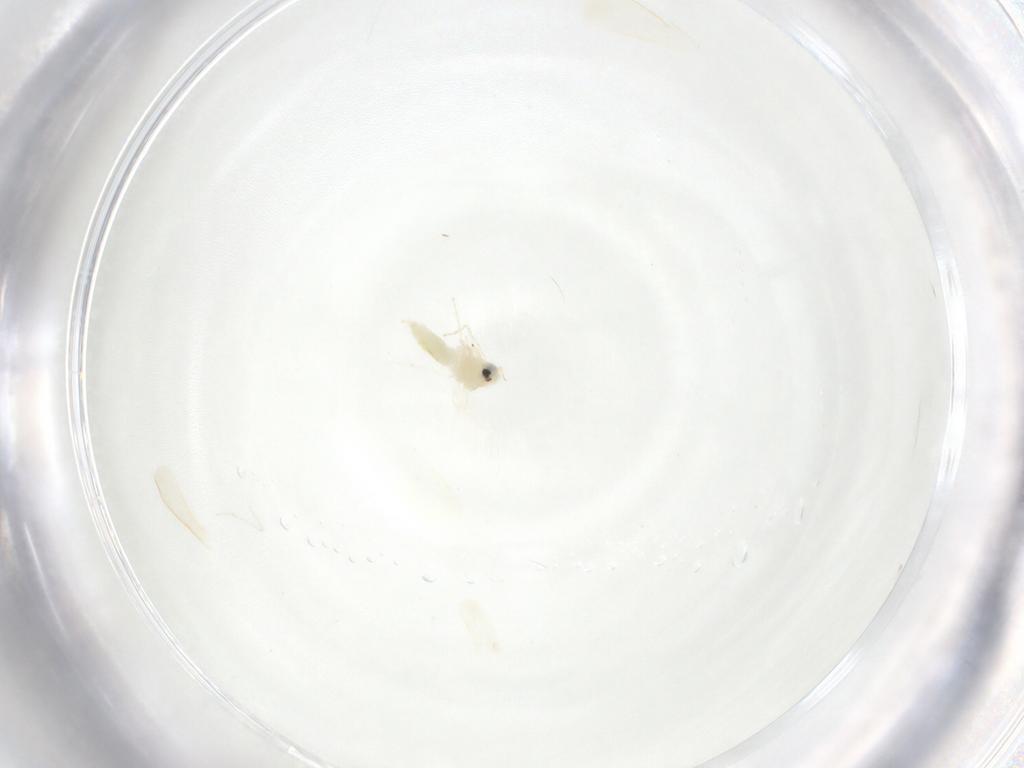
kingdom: Animalia
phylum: Arthropoda
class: Insecta
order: Hemiptera
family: Aleyrodidae
